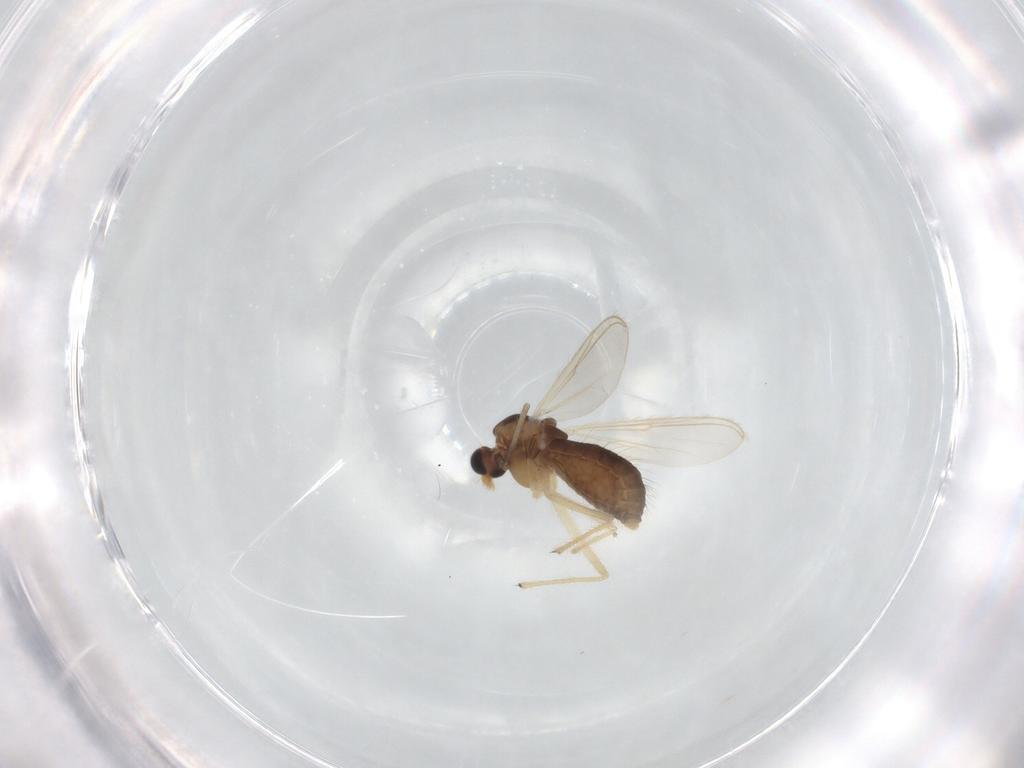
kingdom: Animalia
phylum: Arthropoda
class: Insecta
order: Diptera
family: Chironomidae
